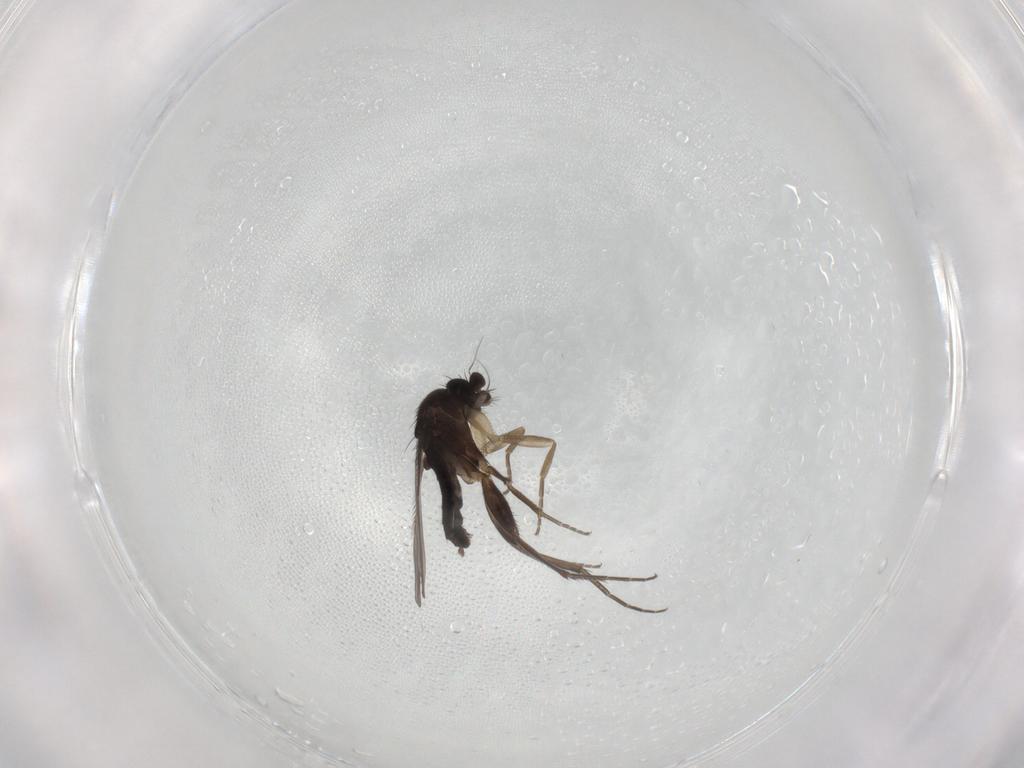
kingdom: Animalia
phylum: Arthropoda
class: Insecta
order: Diptera
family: Phoridae
